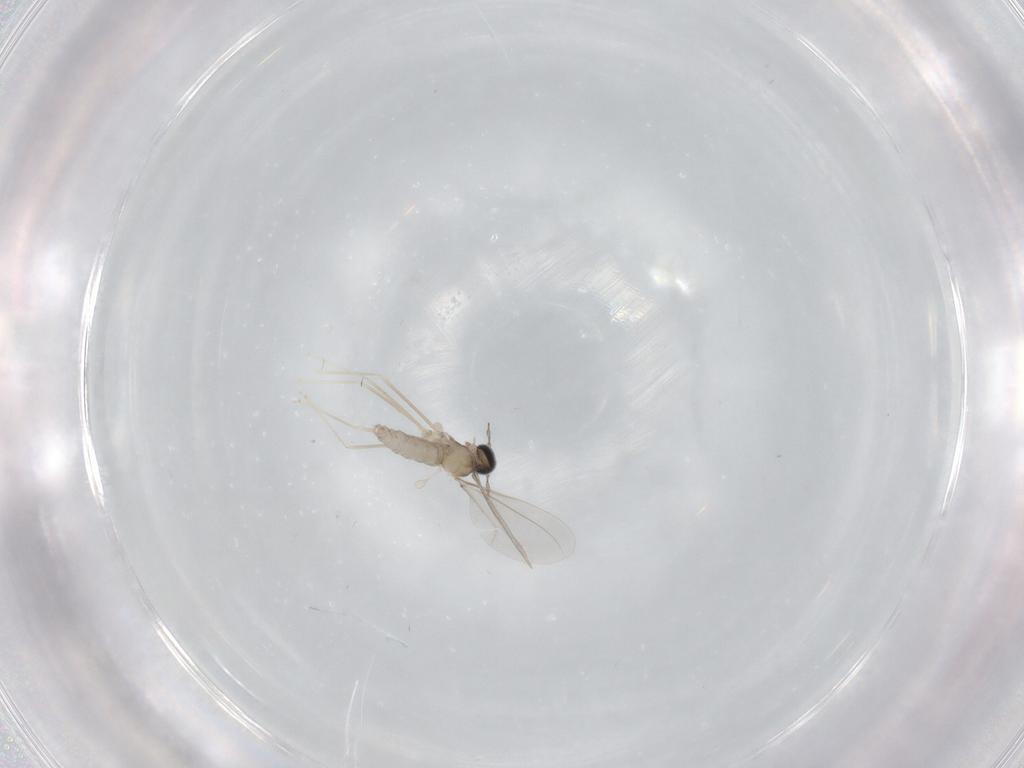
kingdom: Animalia
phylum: Arthropoda
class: Insecta
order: Diptera
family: Cecidomyiidae
